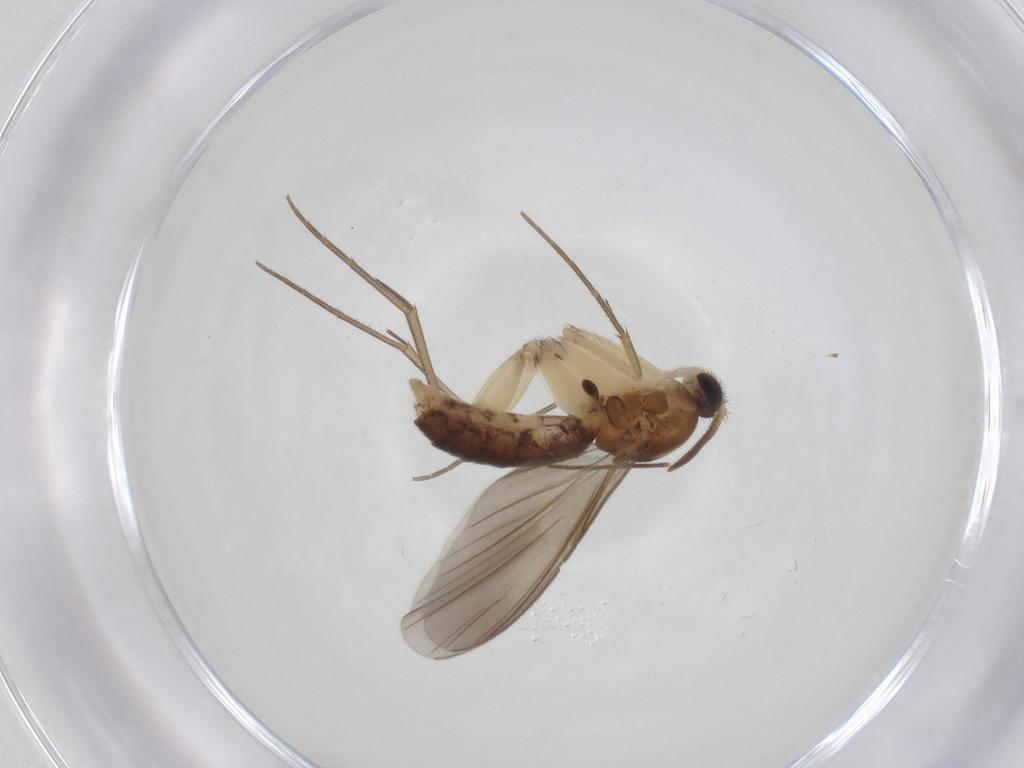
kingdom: Animalia
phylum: Arthropoda
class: Insecta
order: Diptera
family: Mycetophilidae
